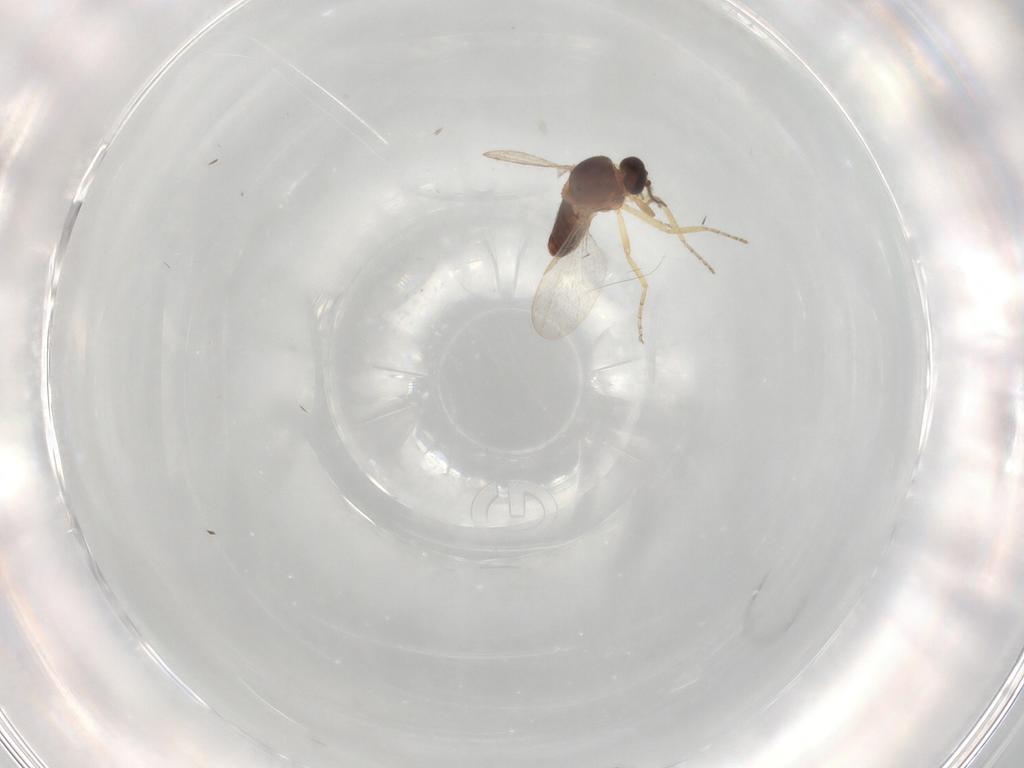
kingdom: Animalia
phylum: Arthropoda
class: Insecta
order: Diptera
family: Ceratopogonidae
